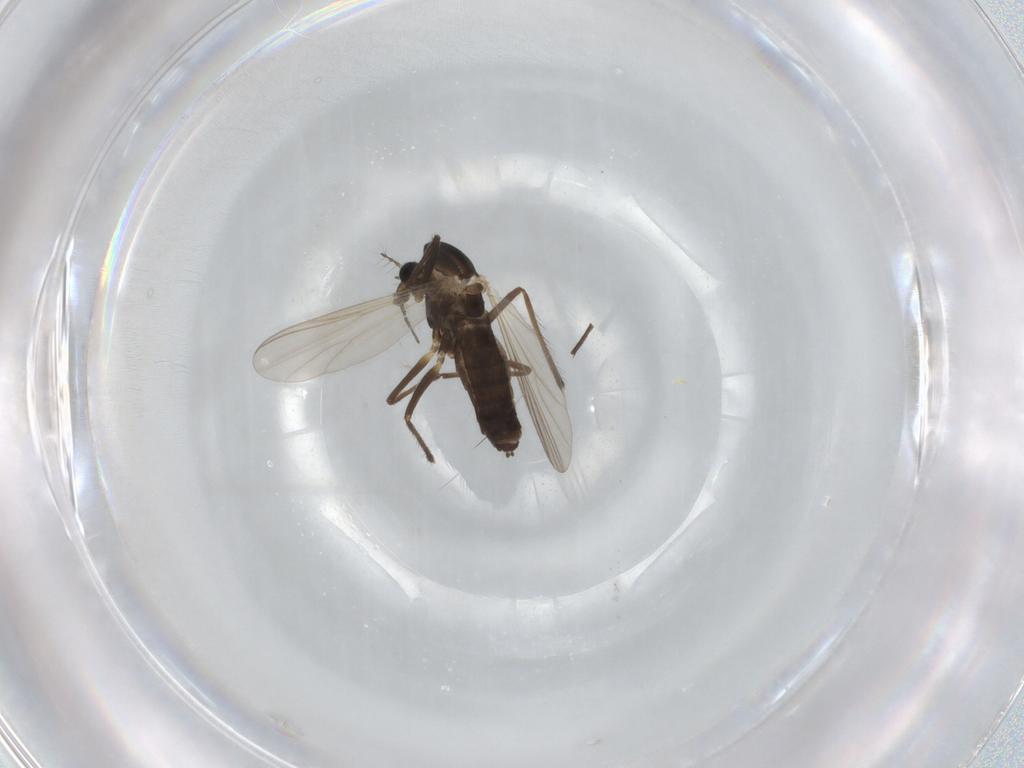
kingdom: Animalia
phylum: Arthropoda
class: Insecta
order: Diptera
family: Chironomidae
